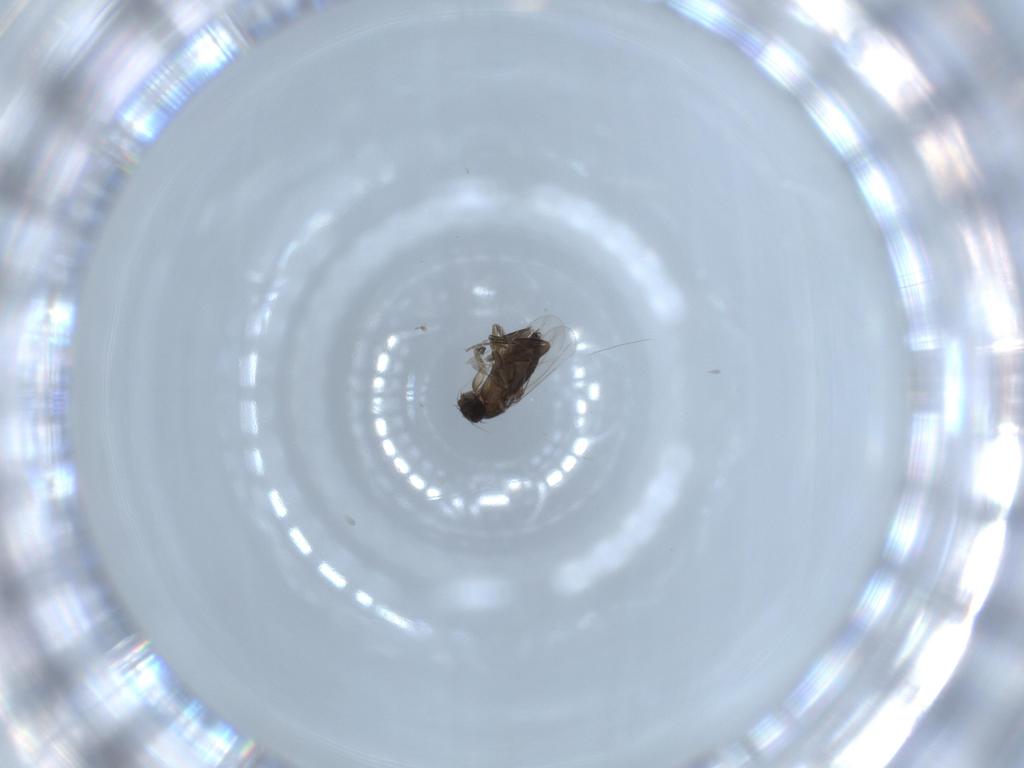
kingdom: Animalia
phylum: Arthropoda
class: Insecta
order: Diptera
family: Phoridae
